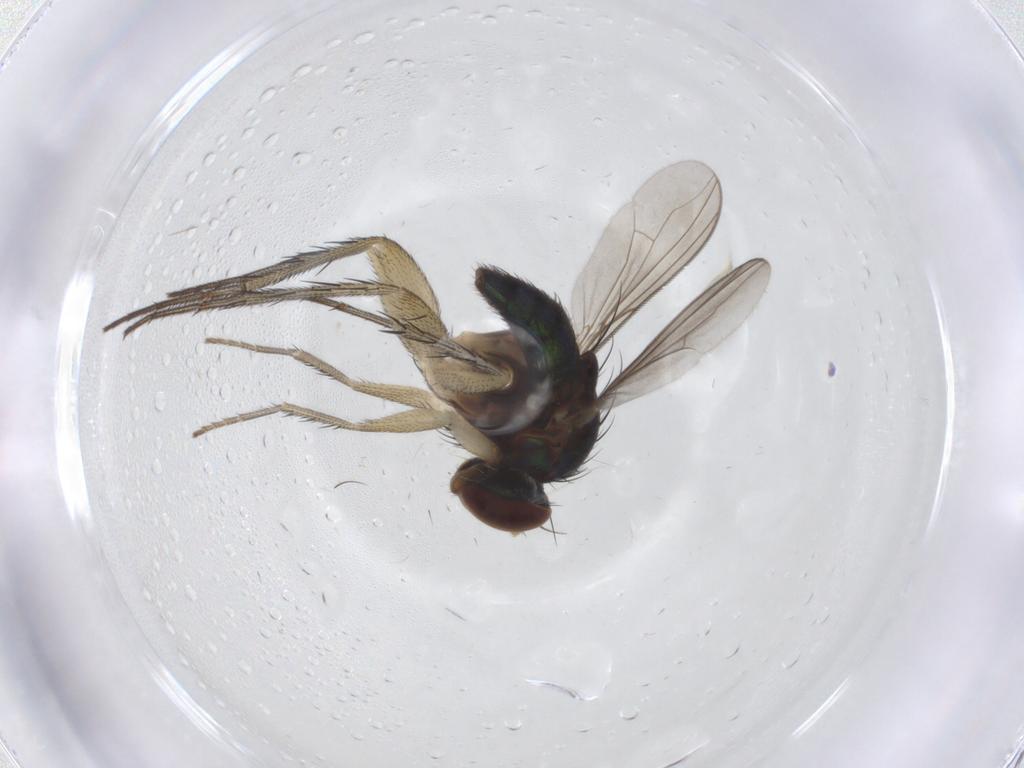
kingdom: Animalia
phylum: Arthropoda
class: Insecta
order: Diptera
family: Dolichopodidae
